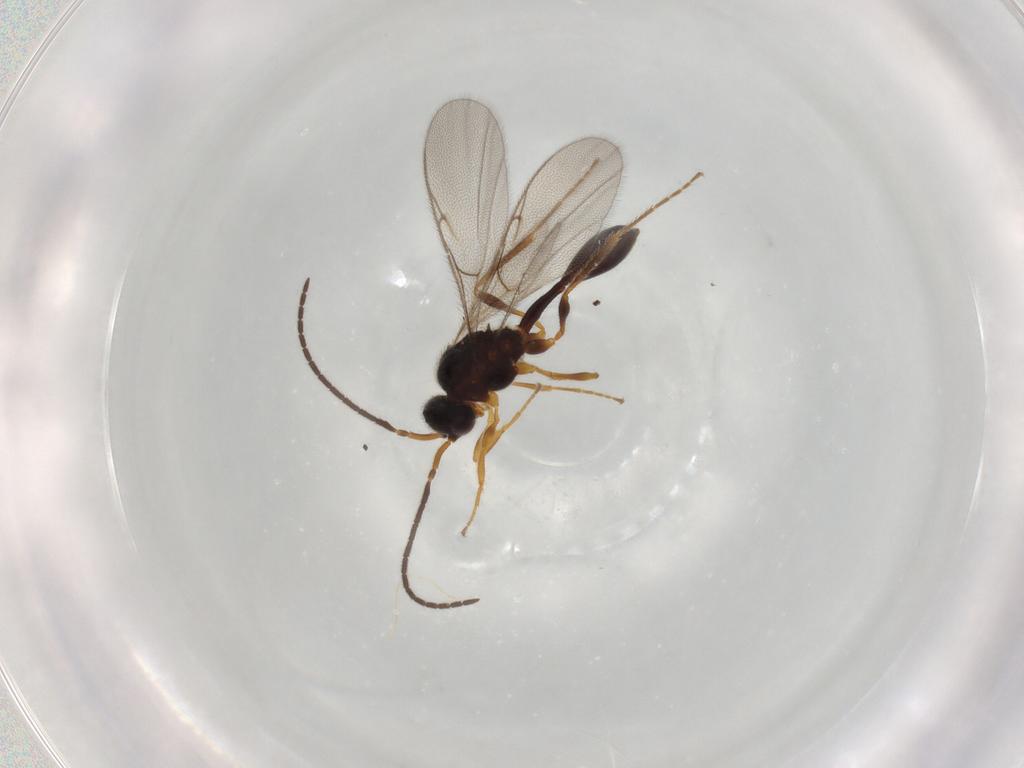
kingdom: Animalia
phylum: Arthropoda
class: Insecta
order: Hymenoptera
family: Diapriidae
